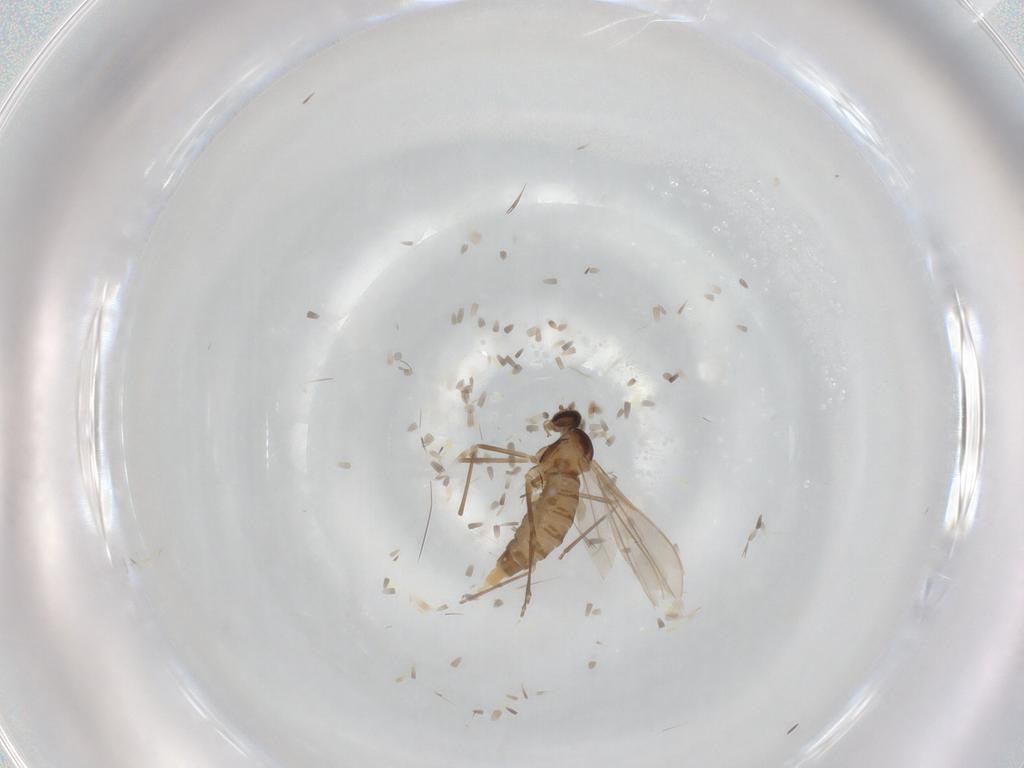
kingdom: Animalia
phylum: Arthropoda
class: Insecta
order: Diptera
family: Cecidomyiidae
